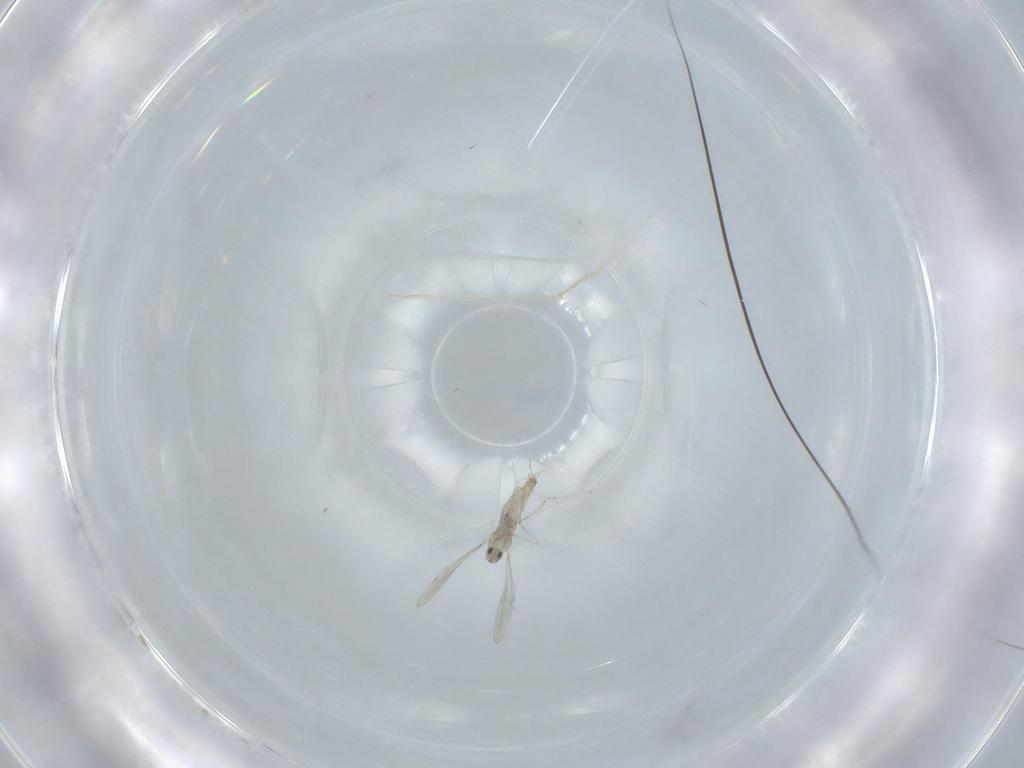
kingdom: Animalia
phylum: Arthropoda
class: Insecta
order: Diptera
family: Cecidomyiidae
